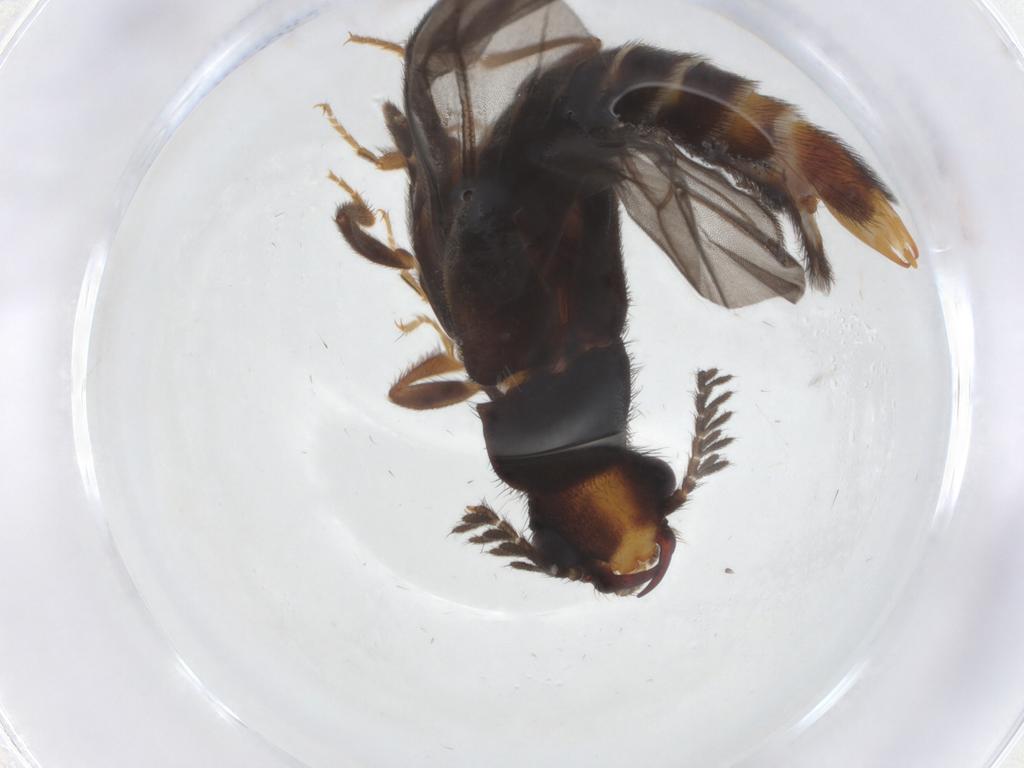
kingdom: Animalia
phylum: Arthropoda
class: Insecta
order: Coleoptera
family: Phengodidae
